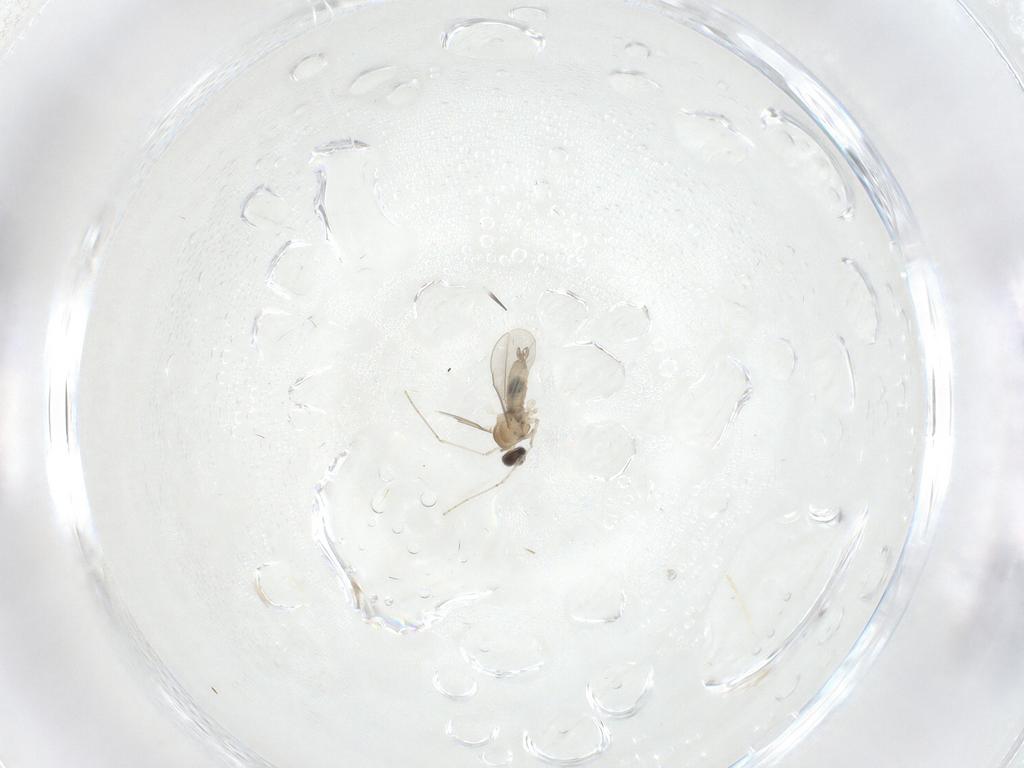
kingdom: Animalia
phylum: Arthropoda
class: Insecta
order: Diptera
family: Cecidomyiidae
